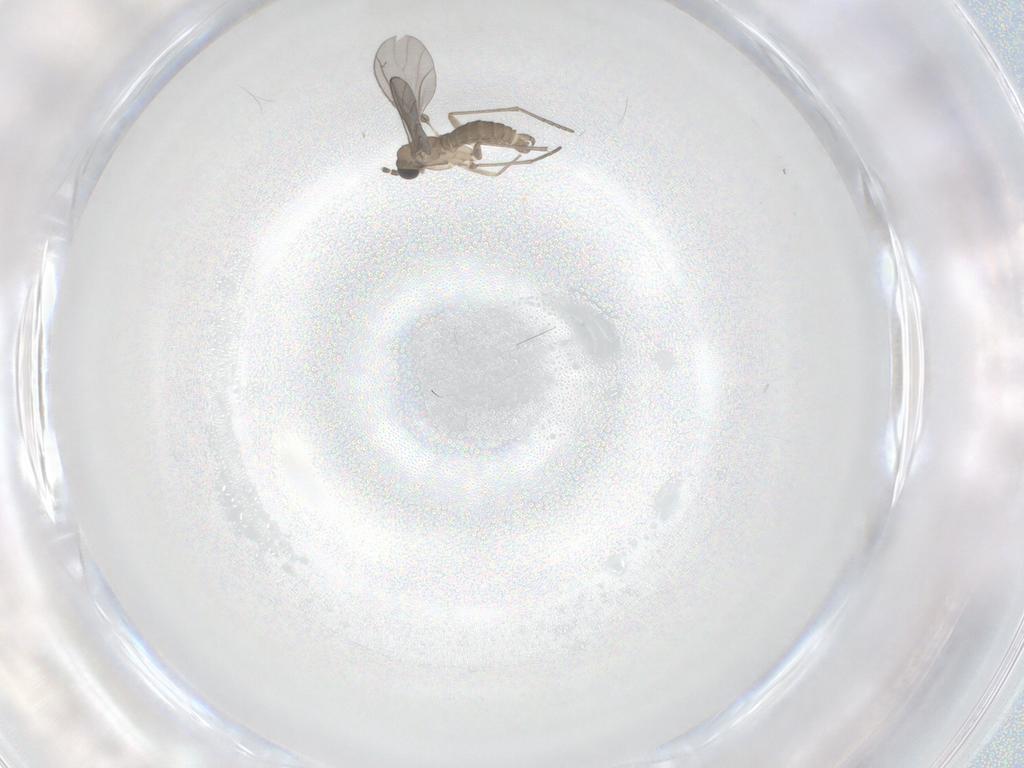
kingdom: Animalia
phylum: Arthropoda
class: Insecta
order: Diptera
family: Sciaridae
